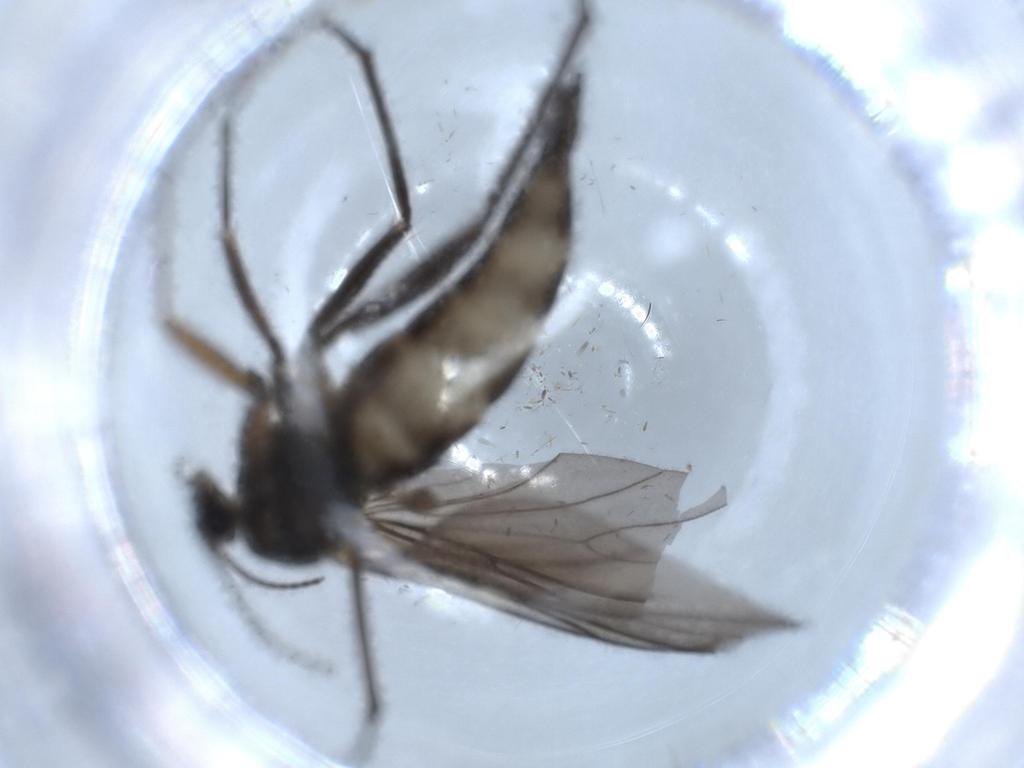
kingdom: Animalia
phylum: Arthropoda
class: Insecta
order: Diptera
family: Sciaridae
